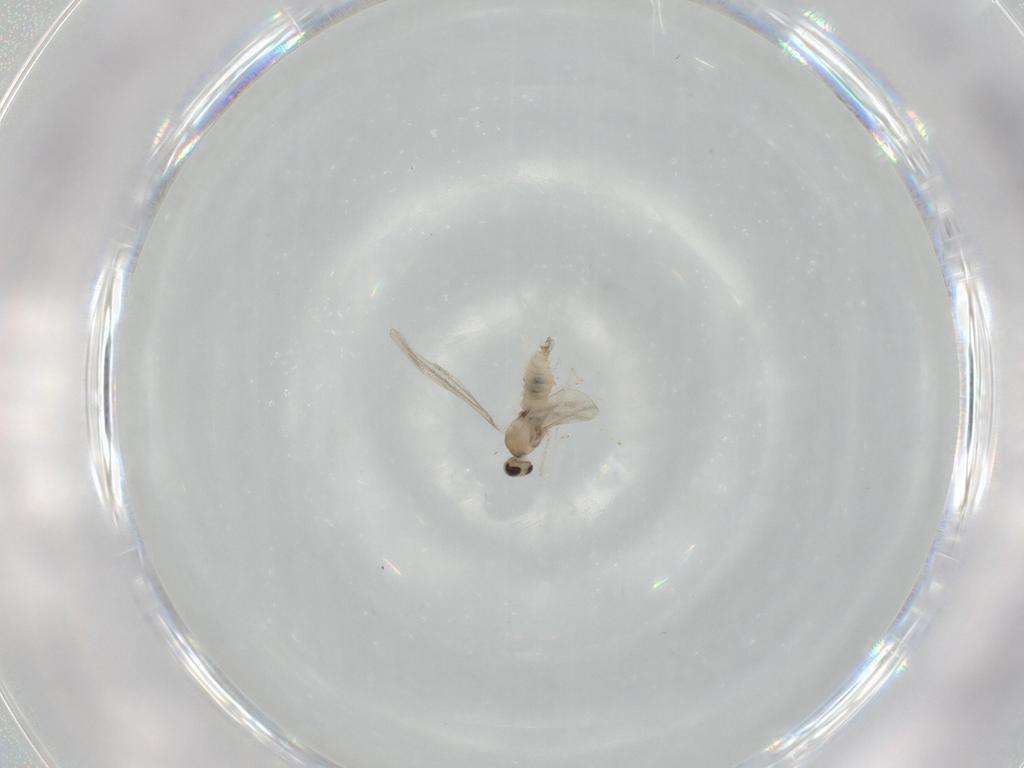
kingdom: Animalia
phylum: Arthropoda
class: Insecta
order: Diptera
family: Cecidomyiidae
